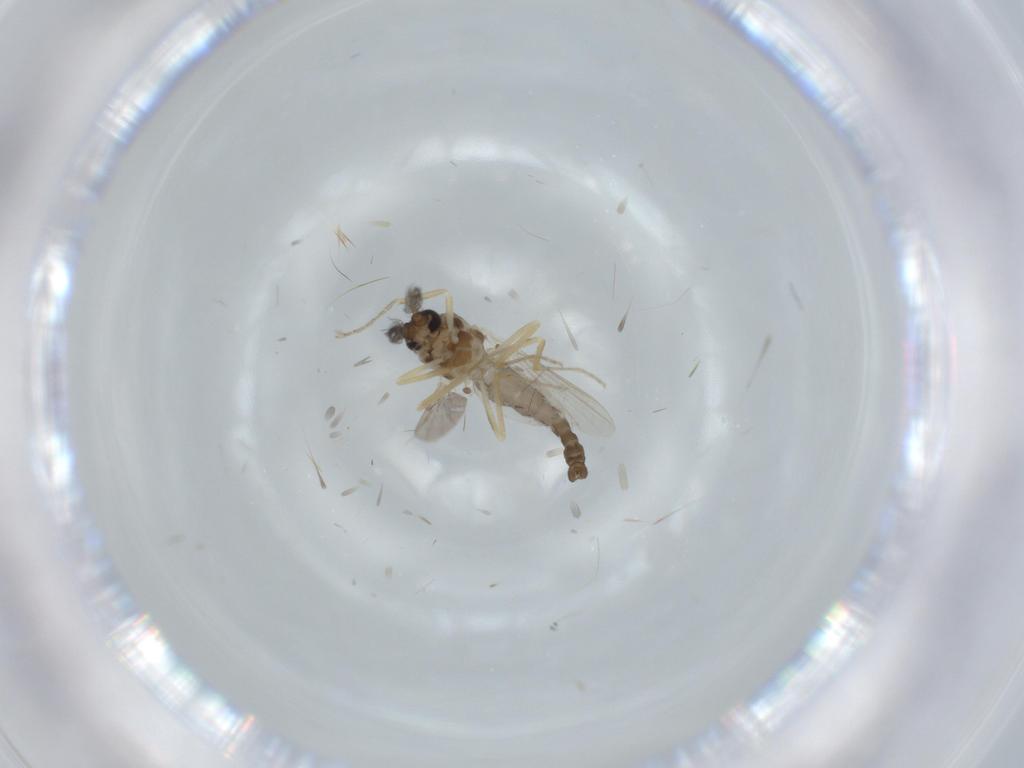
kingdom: Animalia
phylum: Arthropoda
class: Insecta
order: Diptera
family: Ceratopogonidae
